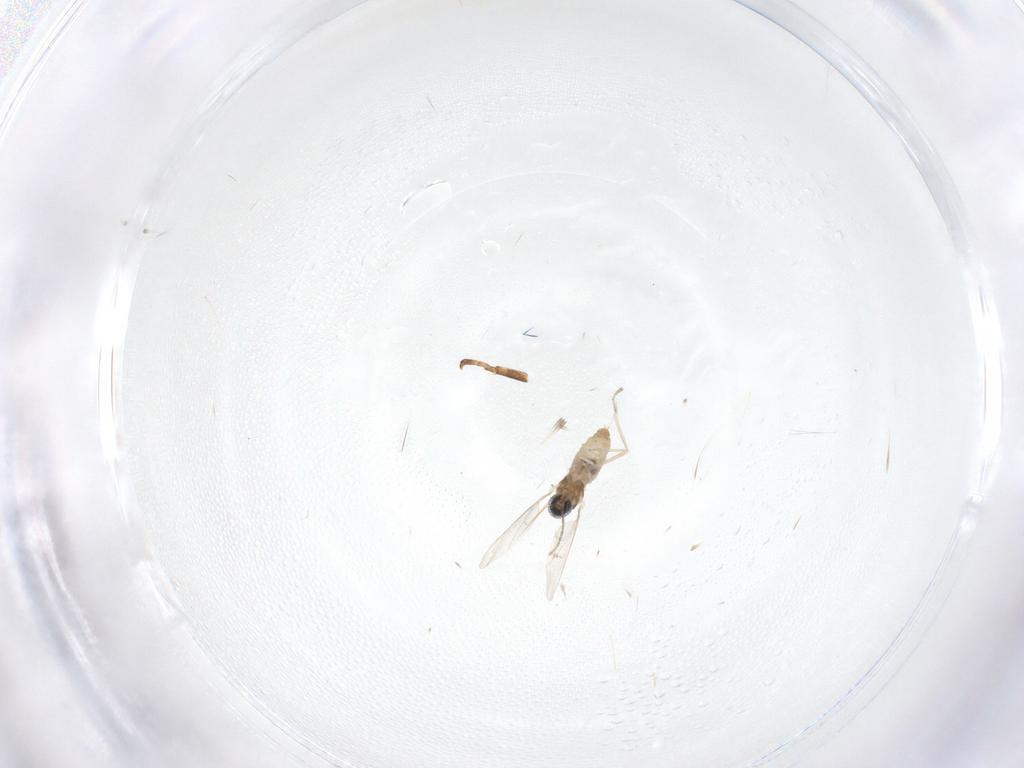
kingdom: Animalia
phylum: Arthropoda
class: Insecta
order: Diptera
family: Cecidomyiidae
